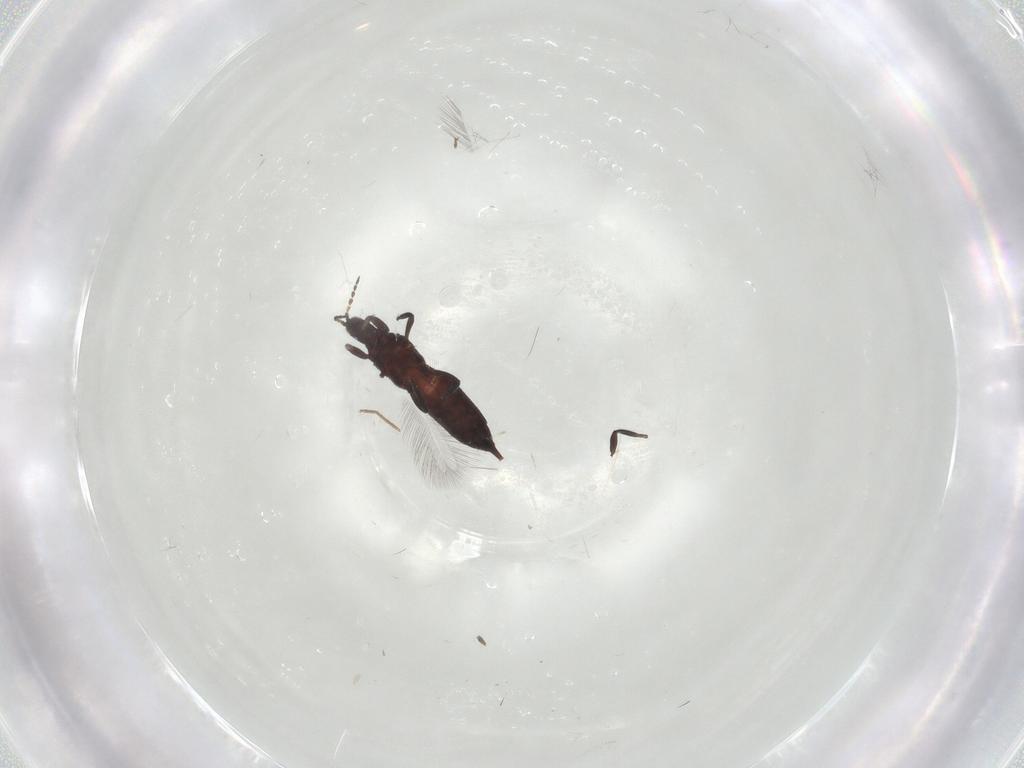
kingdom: Animalia
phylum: Arthropoda
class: Insecta
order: Thysanoptera
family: Phlaeothripidae
